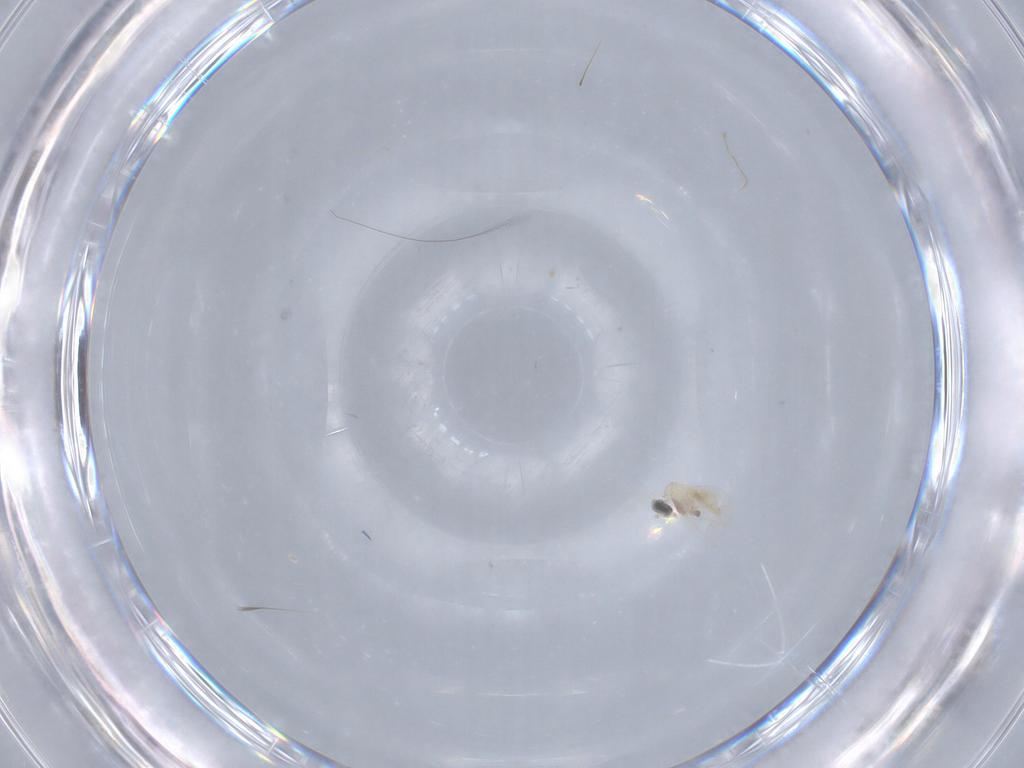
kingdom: Animalia
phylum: Arthropoda
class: Insecta
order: Diptera
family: Cecidomyiidae
